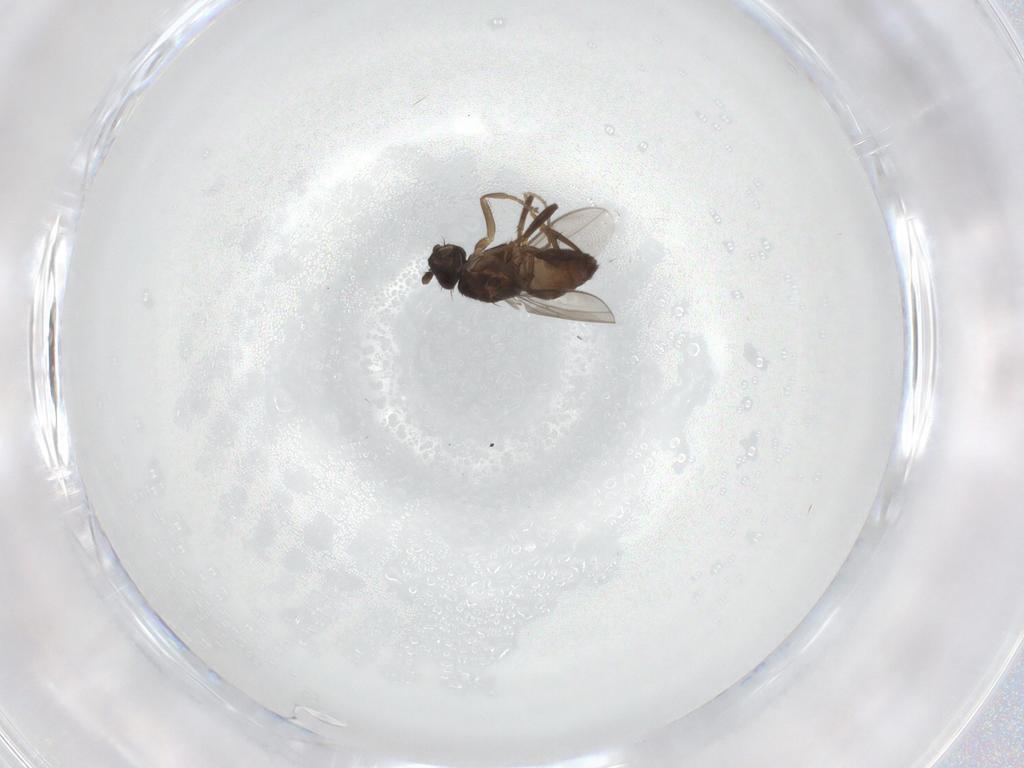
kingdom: Animalia
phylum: Arthropoda
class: Insecta
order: Diptera
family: Sphaeroceridae
